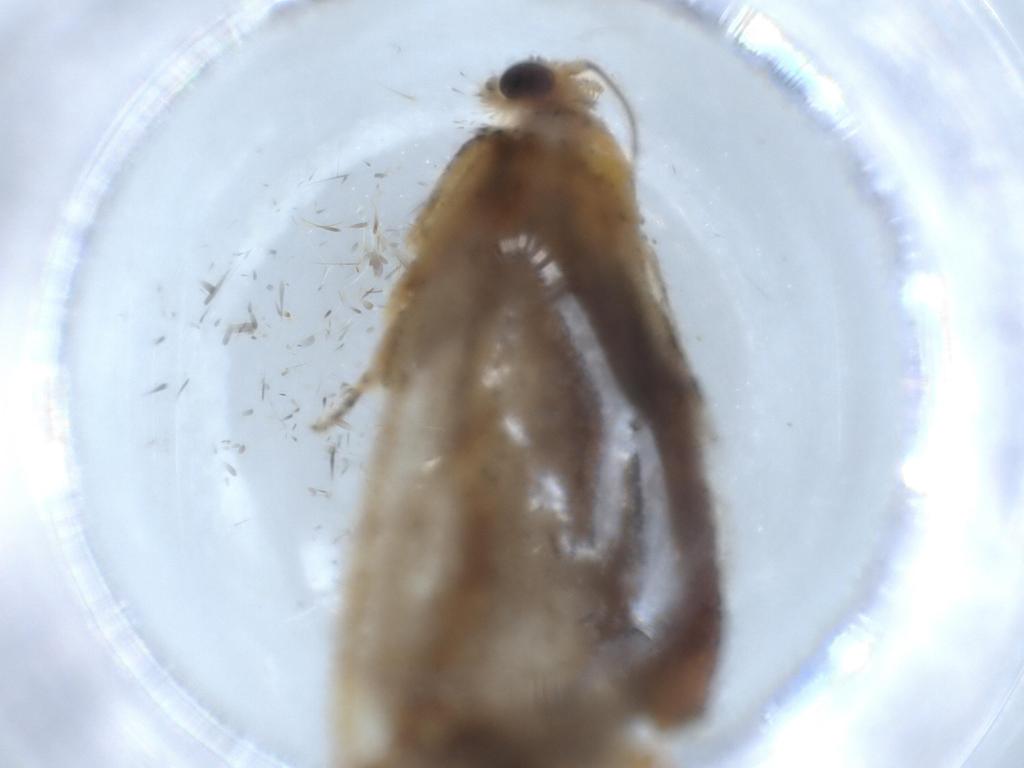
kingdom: Animalia
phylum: Arthropoda
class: Insecta
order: Lepidoptera
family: Tineidae
